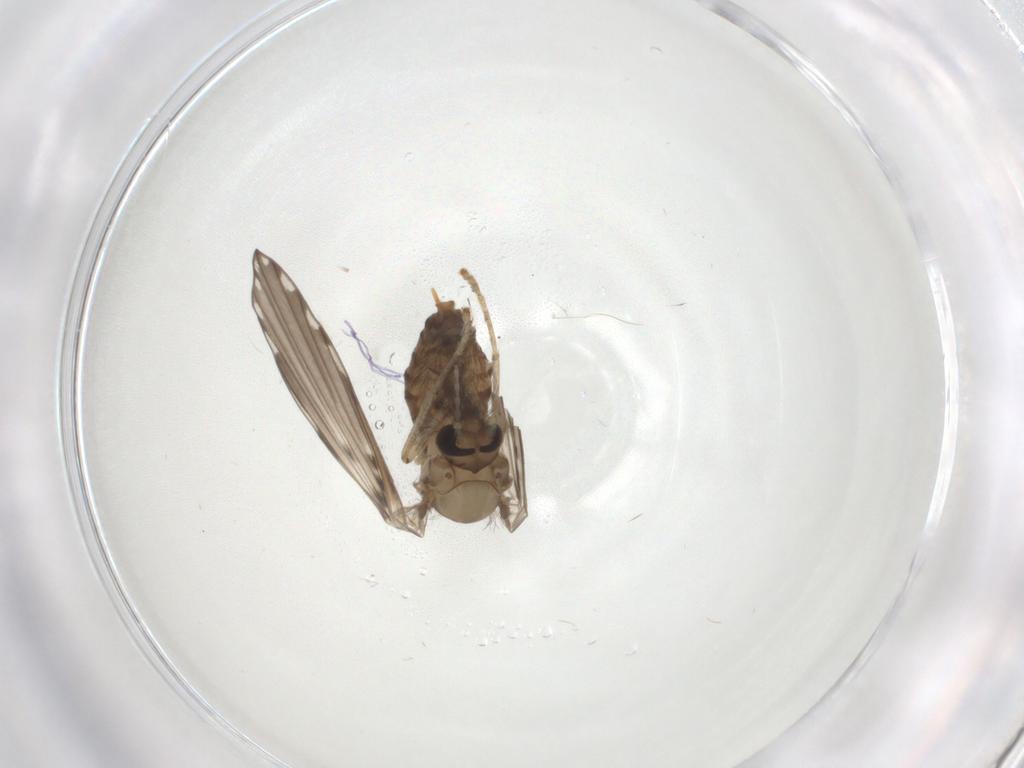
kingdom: Animalia
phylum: Arthropoda
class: Insecta
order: Diptera
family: Psychodidae
